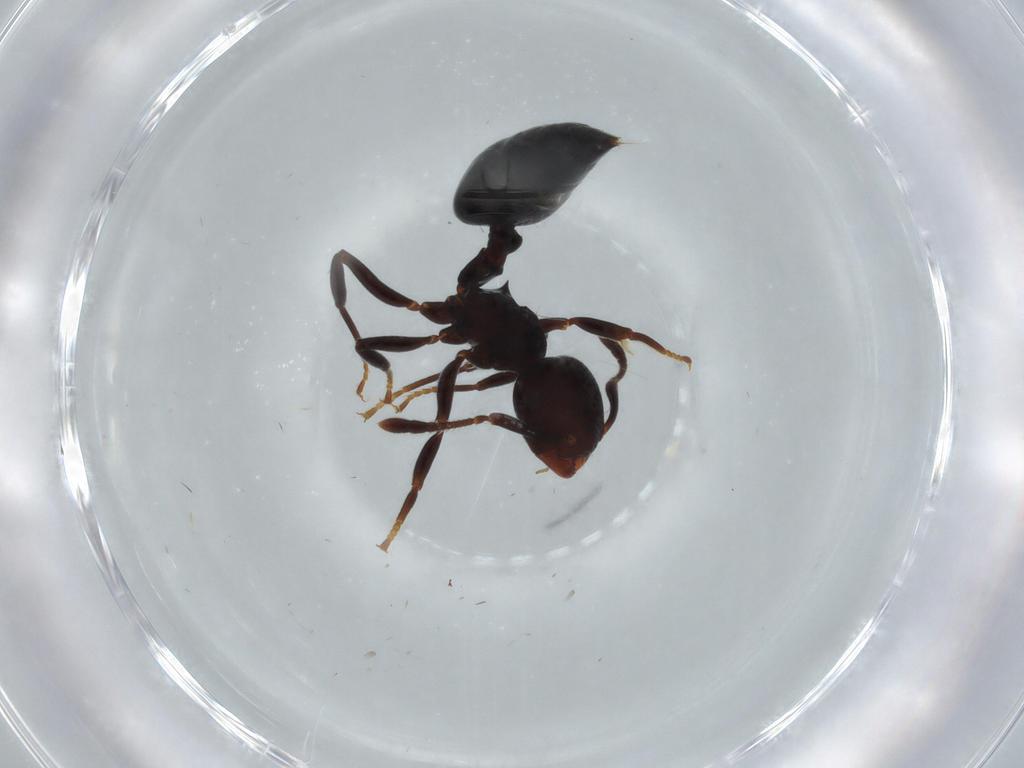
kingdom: Animalia
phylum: Arthropoda
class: Insecta
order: Hymenoptera
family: Formicidae
